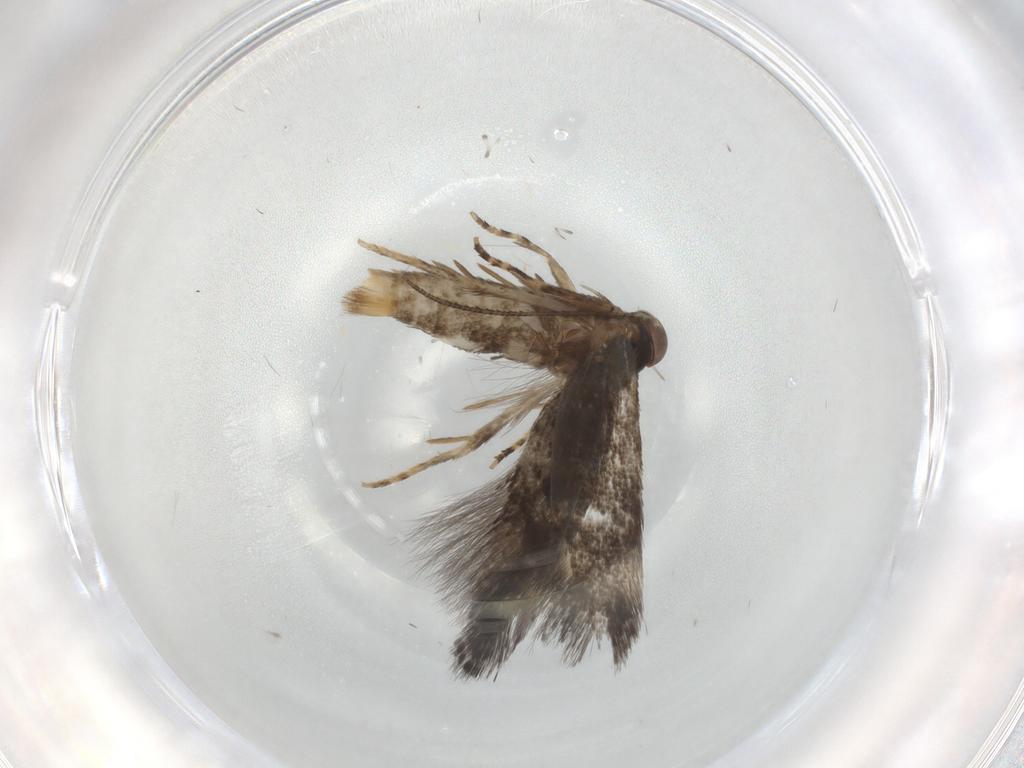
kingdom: Animalia
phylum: Arthropoda
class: Insecta
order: Lepidoptera
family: Elachistidae
